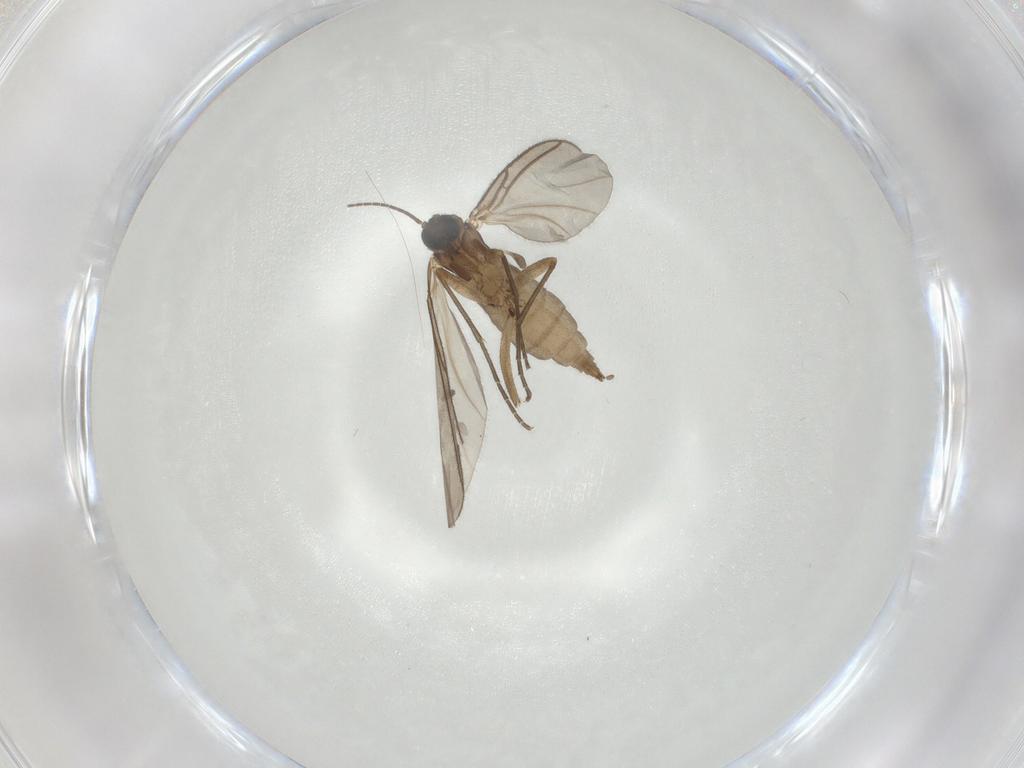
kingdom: Animalia
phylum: Arthropoda
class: Insecta
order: Diptera
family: Sciaridae
